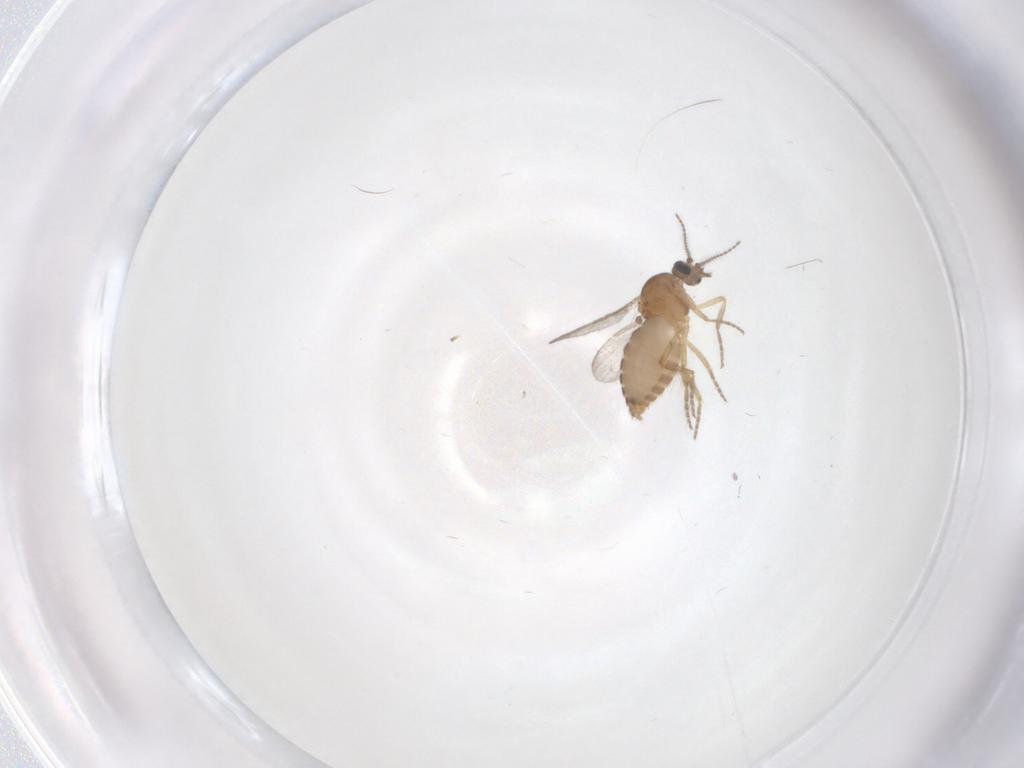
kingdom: Animalia
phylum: Arthropoda
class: Insecta
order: Diptera
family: Ceratopogonidae
